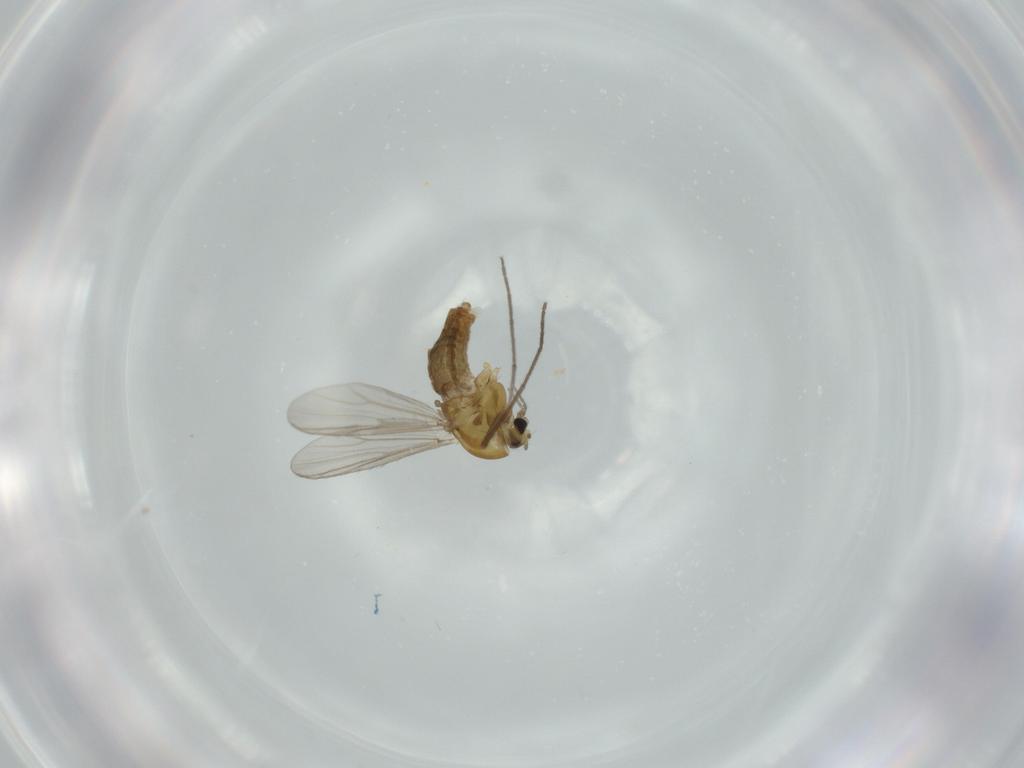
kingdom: Animalia
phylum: Arthropoda
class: Insecta
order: Diptera
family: Chironomidae
